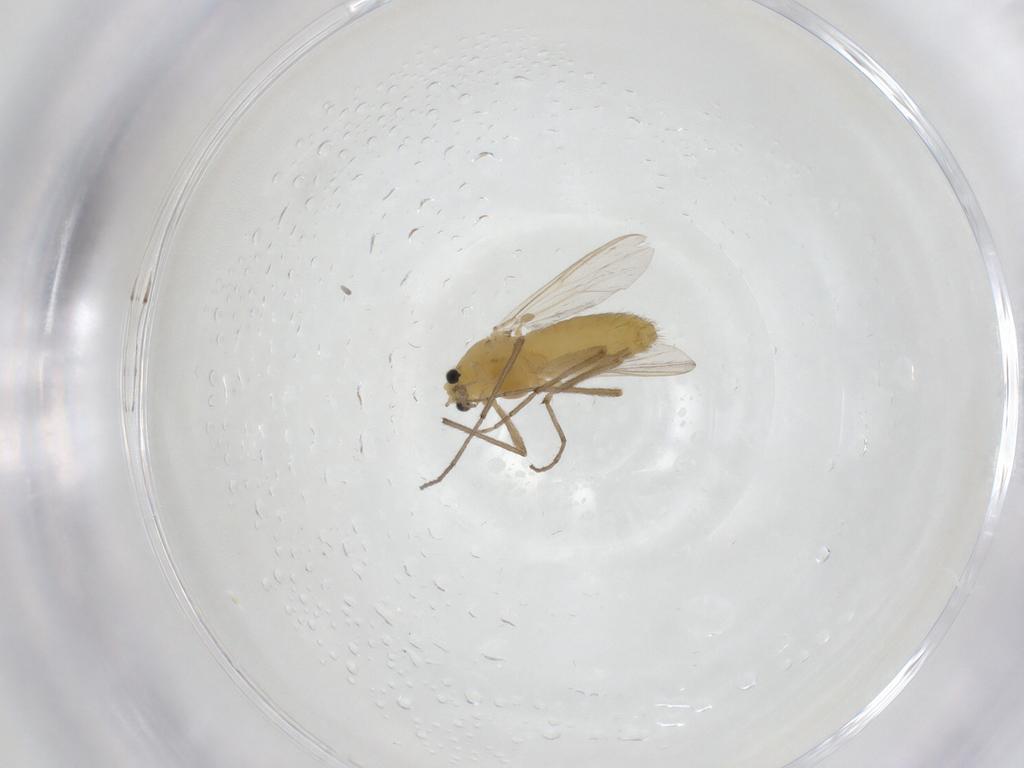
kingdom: Animalia
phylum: Arthropoda
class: Insecta
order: Diptera
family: Chironomidae
